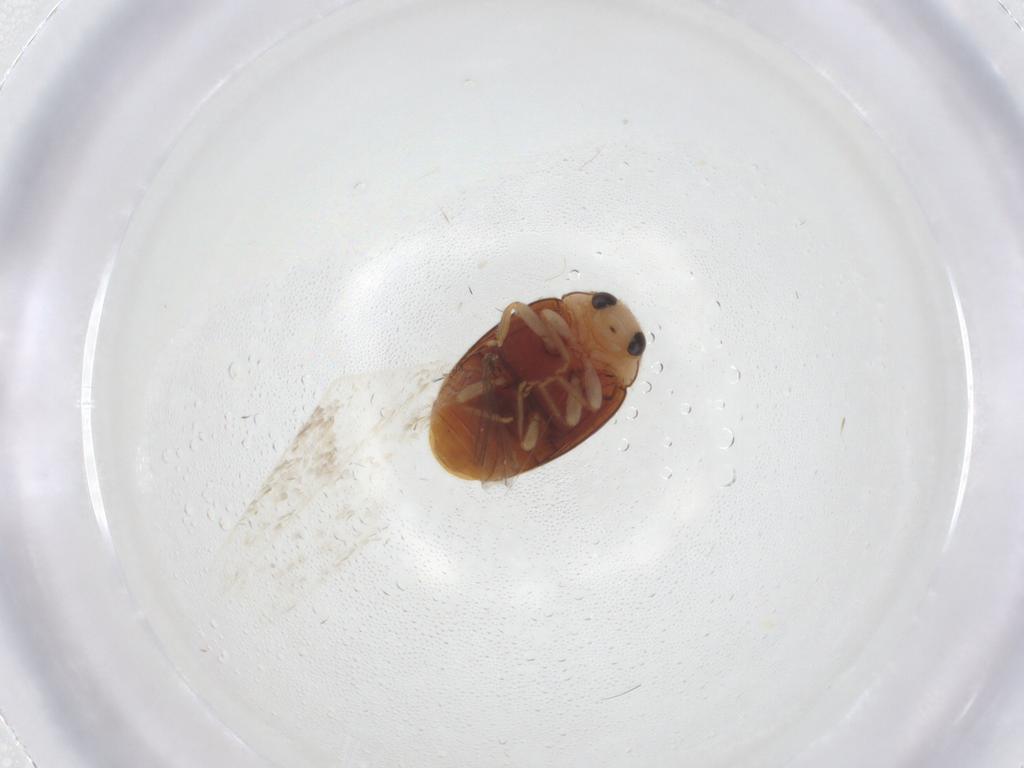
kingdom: Animalia
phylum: Arthropoda
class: Insecta
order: Coleoptera
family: Coccinellidae
